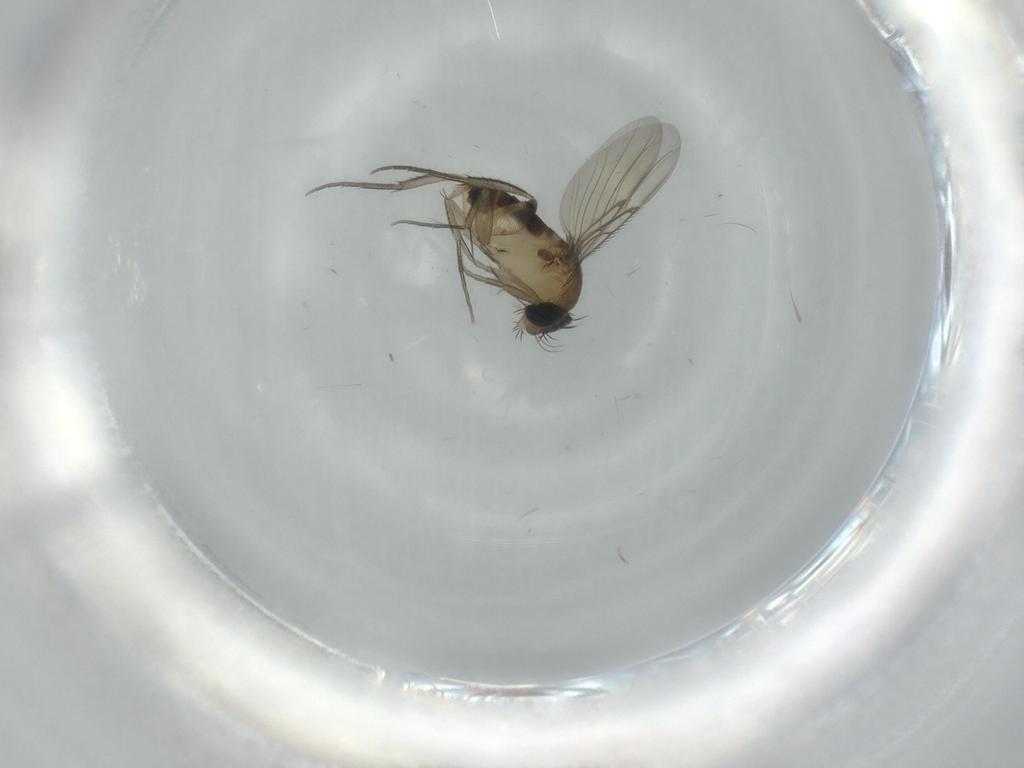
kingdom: Animalia
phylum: Arthropoda
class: Insecta
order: Diptera
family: Phoridae
